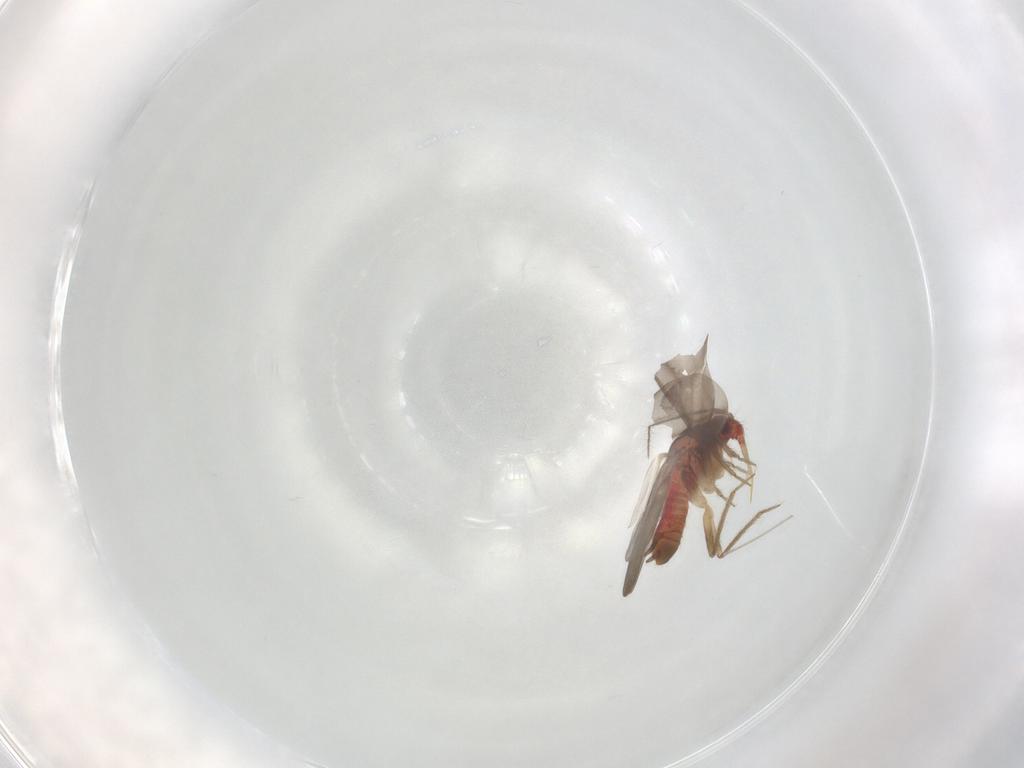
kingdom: Animalia
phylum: Arthropoda
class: Insecta
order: Hemiptera
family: Ceratocombidae
